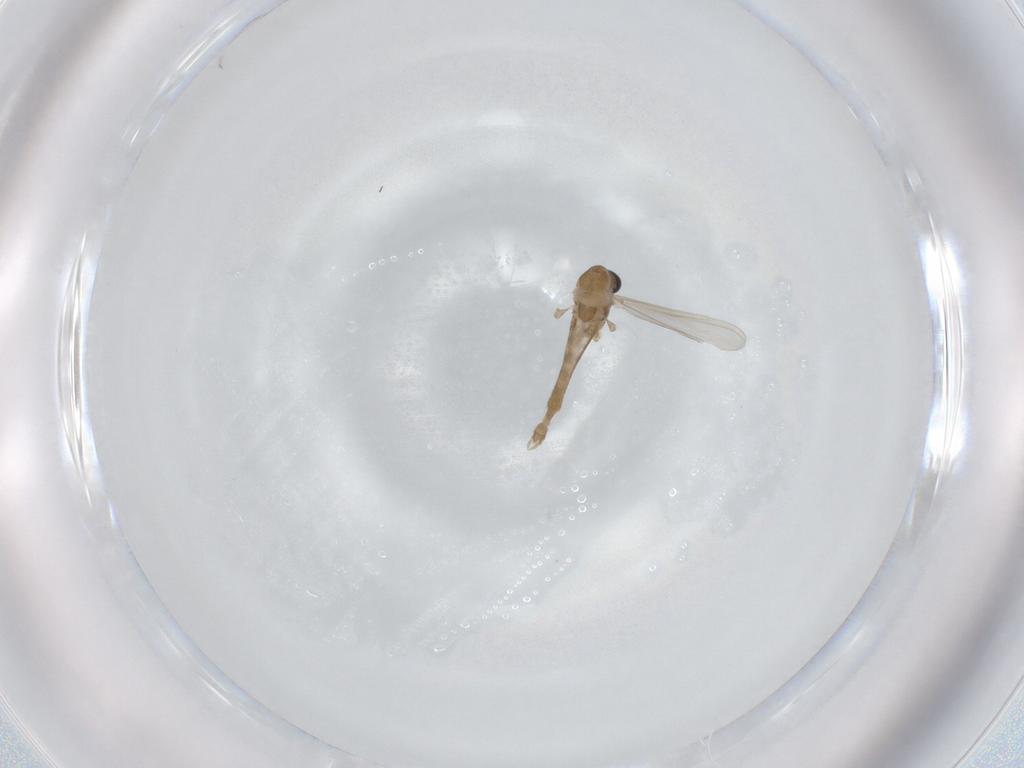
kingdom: Animalia
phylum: Arthropoda
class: Insecta
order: Diptera
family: Chironomidae
